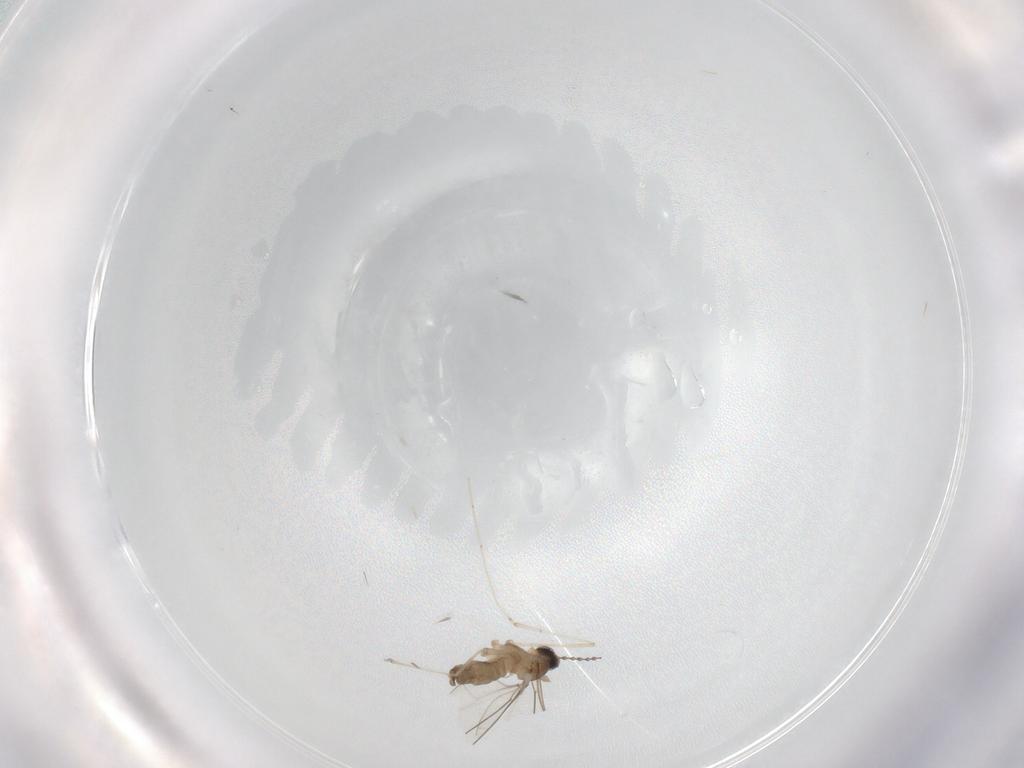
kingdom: Animalia
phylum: Arthropoda
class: Insecta
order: Diptera
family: Cecidomyiidae
